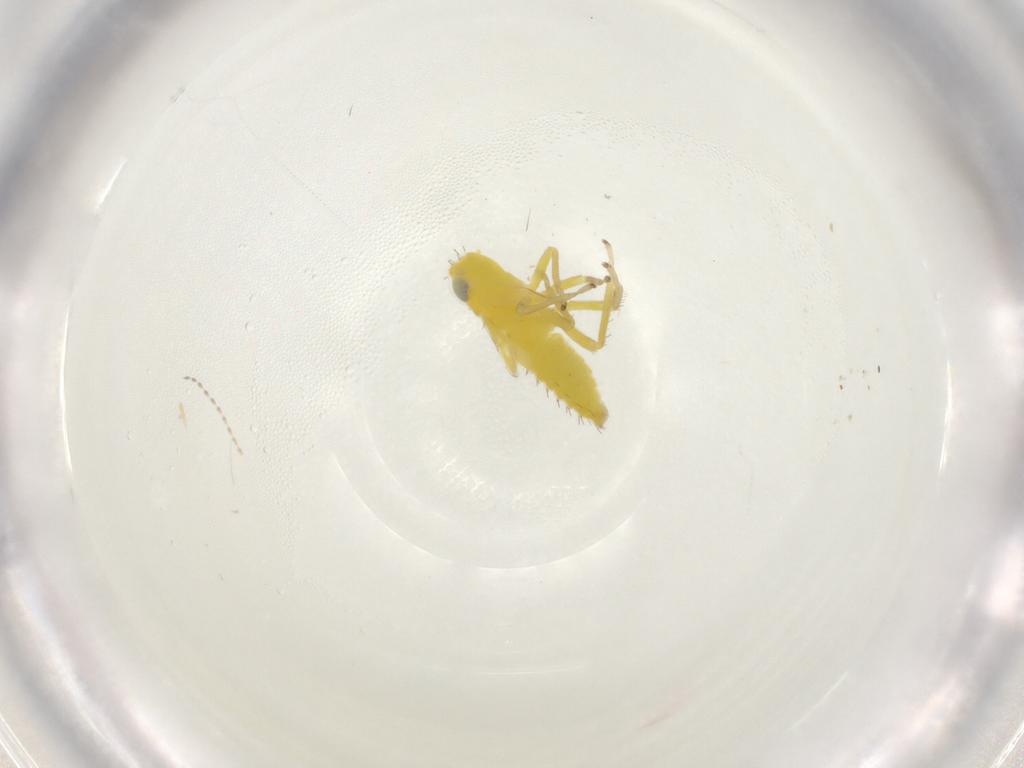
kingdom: Animalia
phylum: Arthropoda
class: Insecta
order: Hemiptera
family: Cicadellidae
